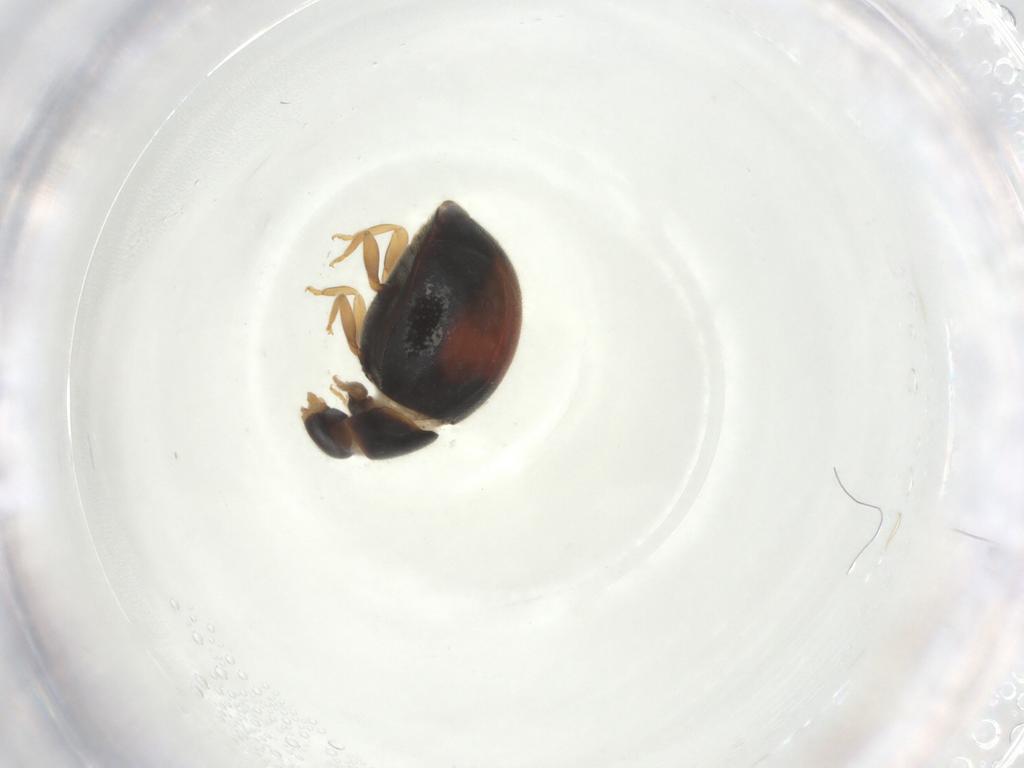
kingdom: Animalia
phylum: Arthropoda
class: Insecta
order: Coleoptera
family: Coccinellidae
